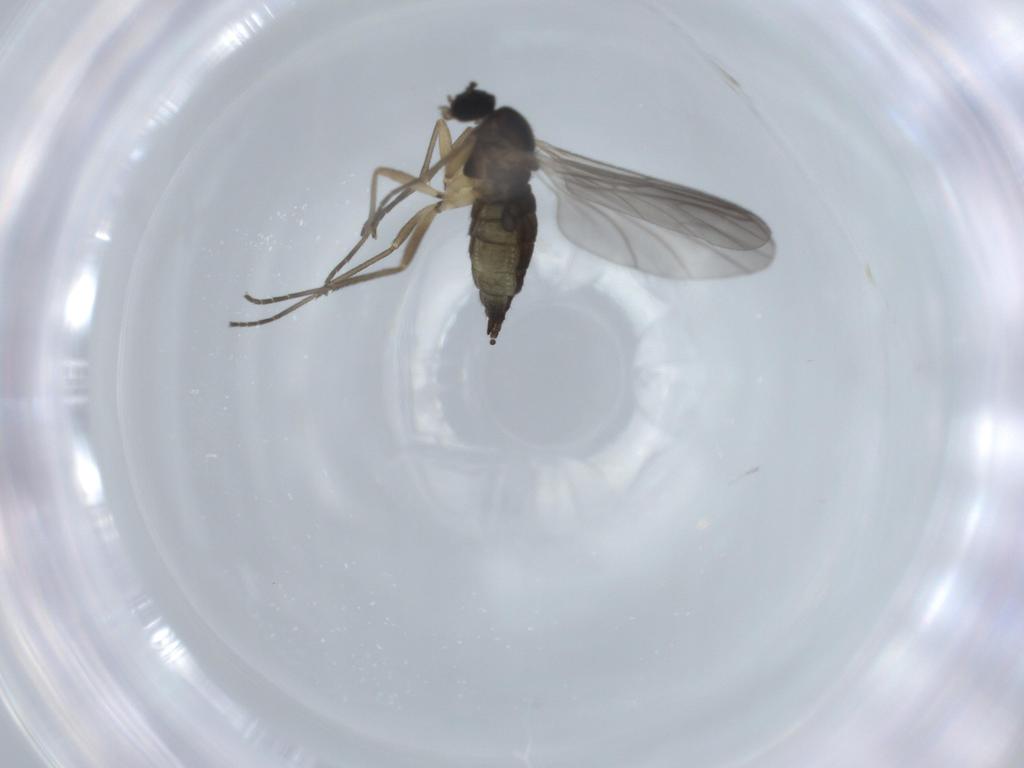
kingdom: Animalia
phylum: Arthropoda
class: Insecta
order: Diptera
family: Sciaridae
